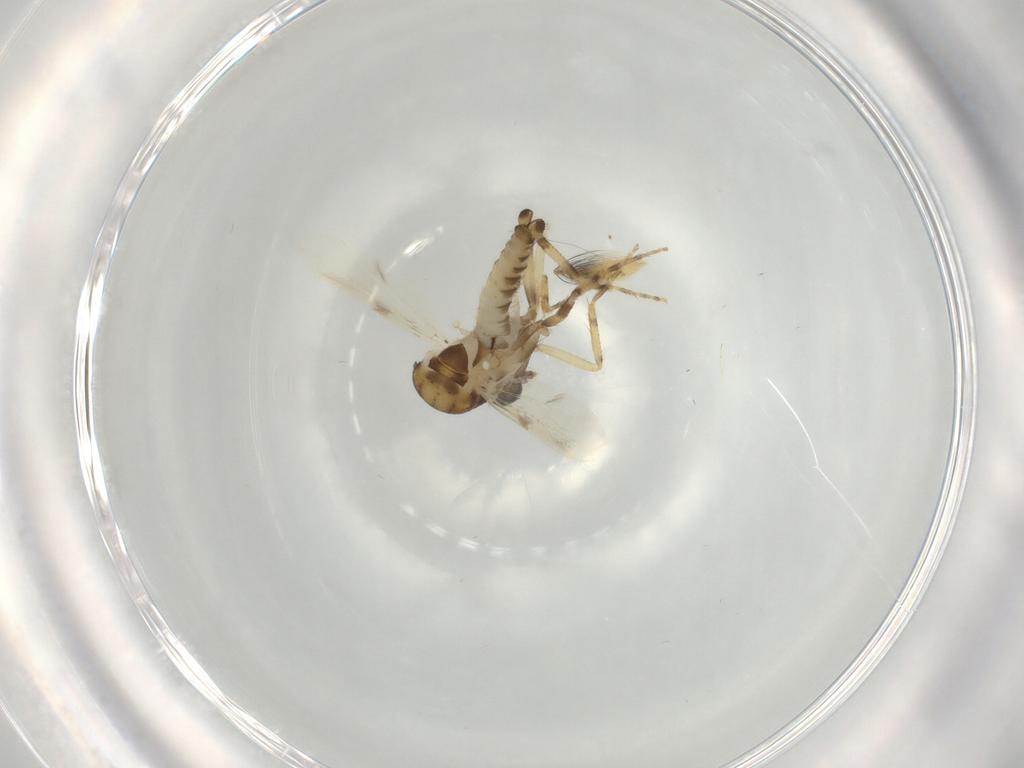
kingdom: Animalia
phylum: Arthropoda
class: Insecta
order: Diptera
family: Ceratopogonidae
